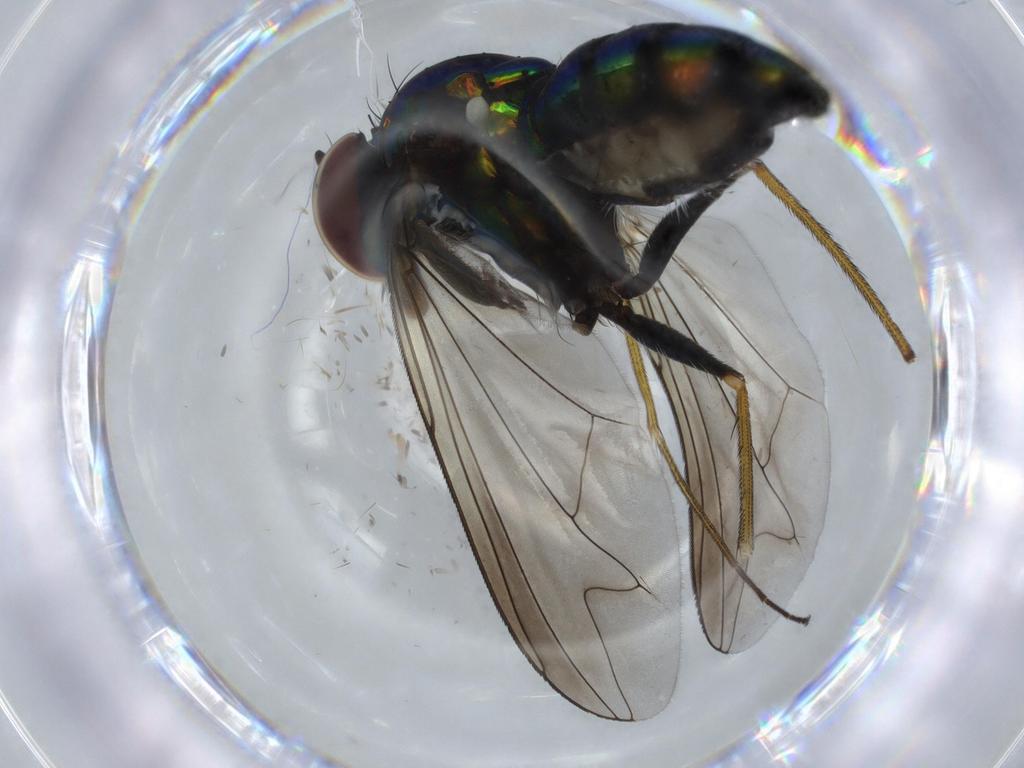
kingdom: Animalia
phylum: Arthropoda
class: Insecta
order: Diptera
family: Dolichopodidae
